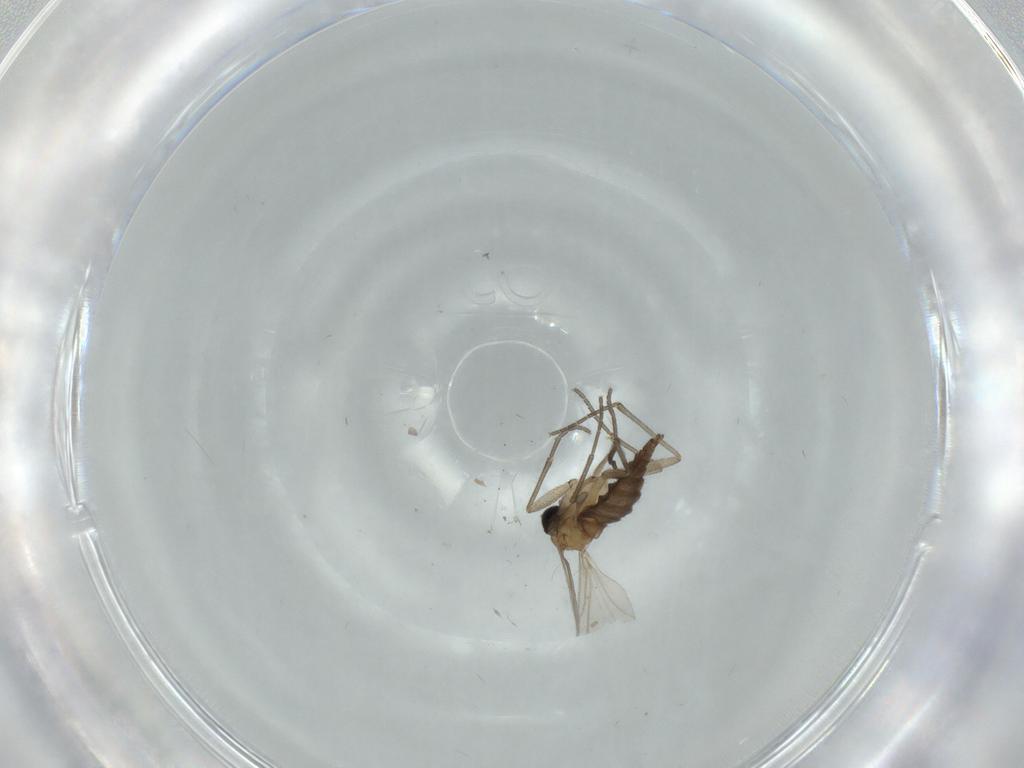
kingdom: Animalia
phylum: Arthropoda
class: Insecta
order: Diptera
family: Sciaridae
